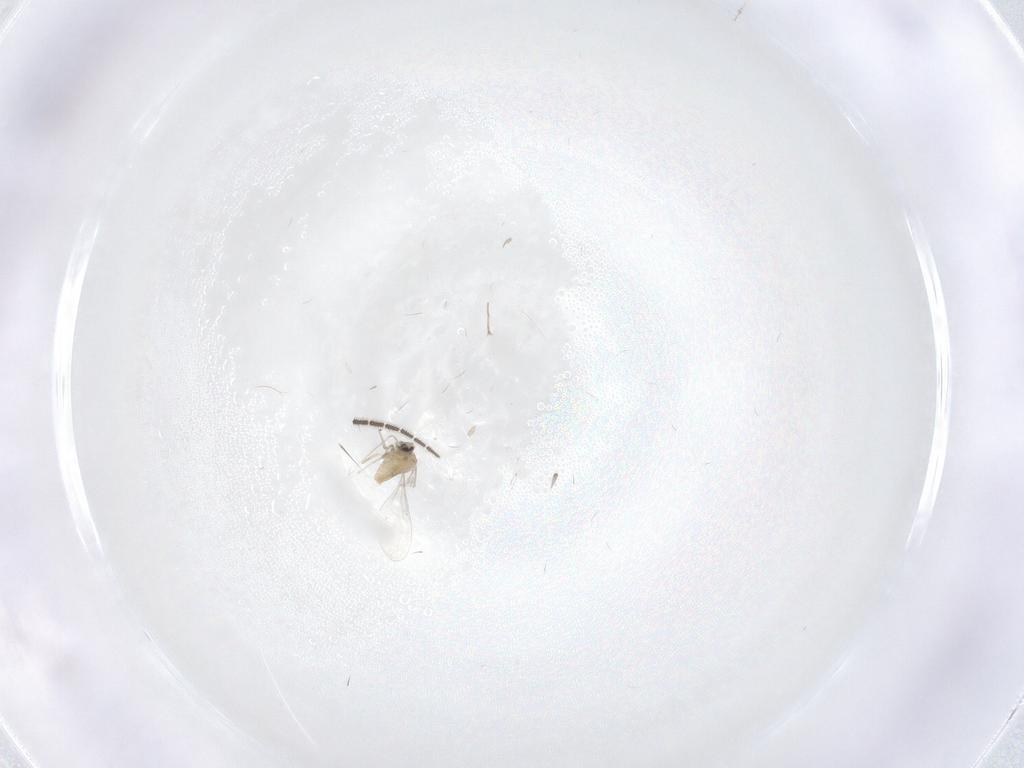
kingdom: Animalia
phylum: Arthropoda
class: Insecta
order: Diptera
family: Cecidomyiidae
